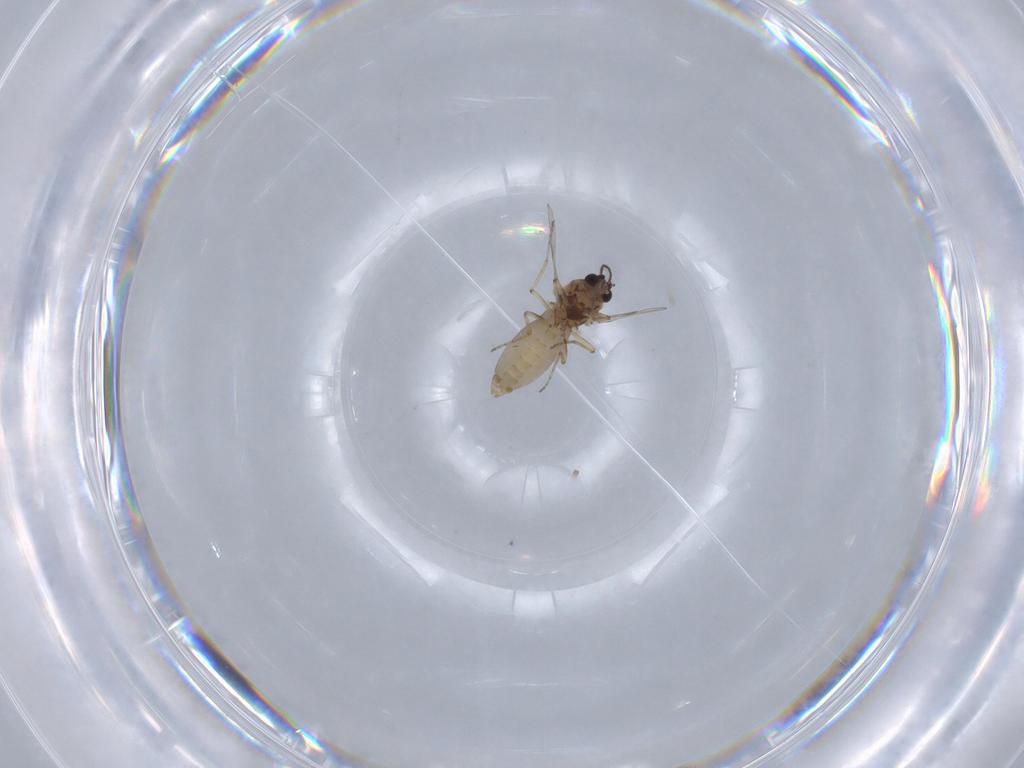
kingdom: Animalia
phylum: Arthropoda
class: Insecta
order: Diptera
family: Ceratopogonidae
